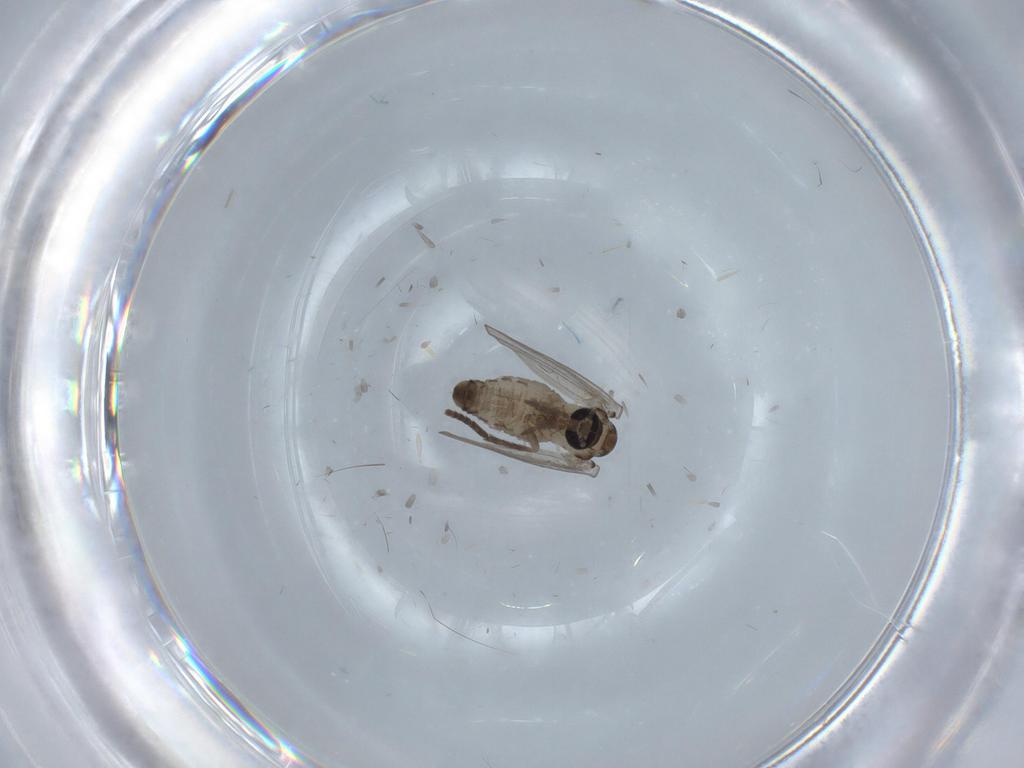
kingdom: Animalia
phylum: Arthropoda
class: Insecta
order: Diptera
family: Psychodidae
